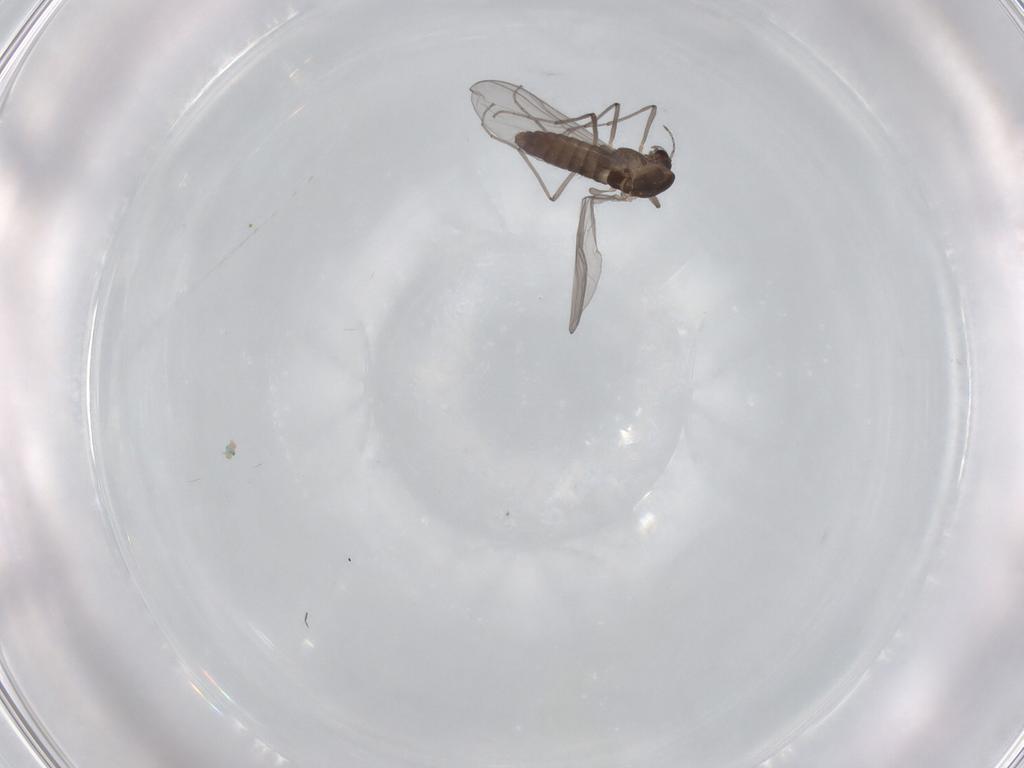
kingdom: Animalia
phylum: Arthropoda
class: Insecta
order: Diptera
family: Chironomidae
